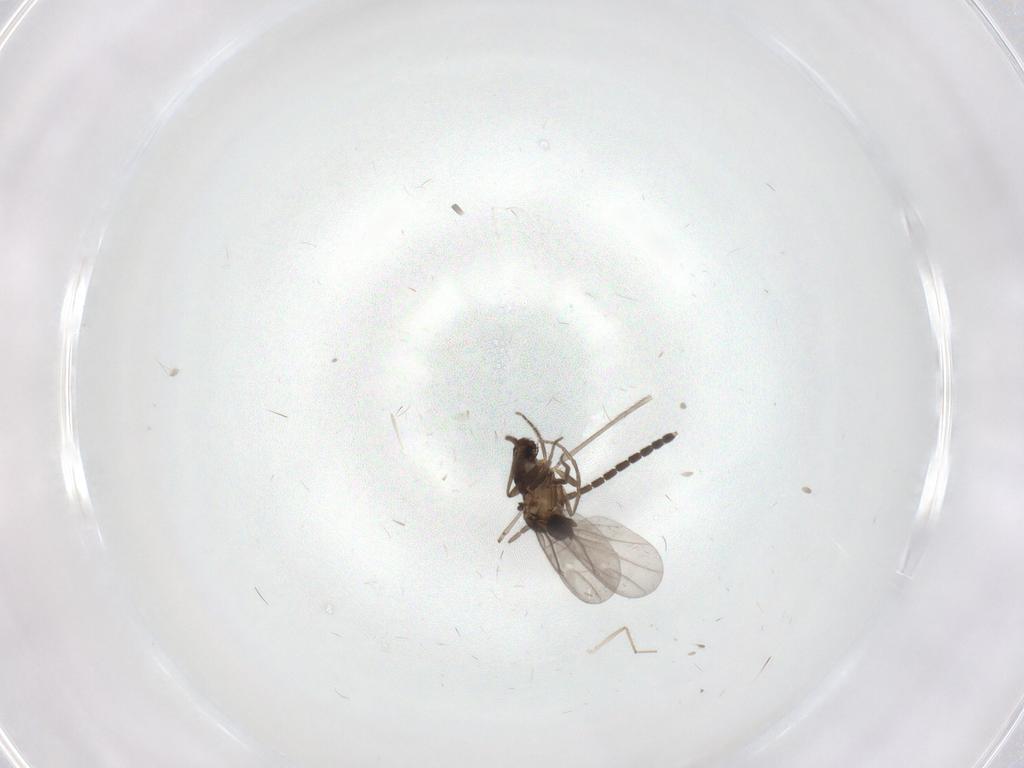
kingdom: Animalia
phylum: Arthropoda
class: Insecta
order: Diptera
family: Sciaridae
